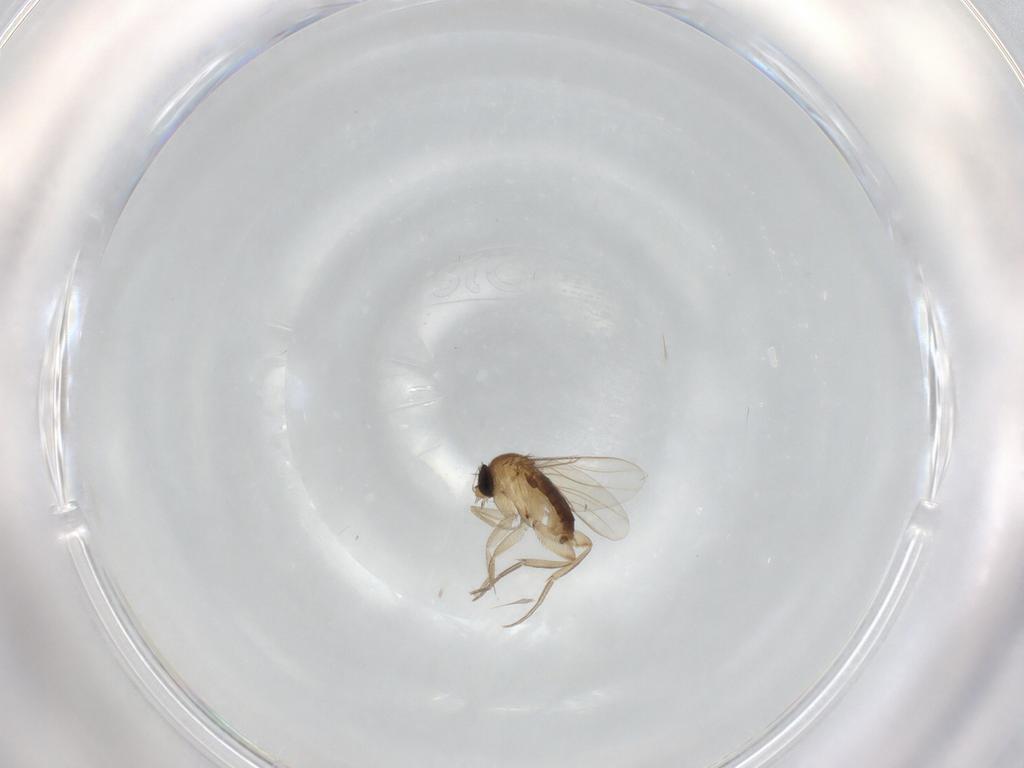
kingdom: Animalia
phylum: Arthropoda
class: Insecta
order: Diptera
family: Phoridae
